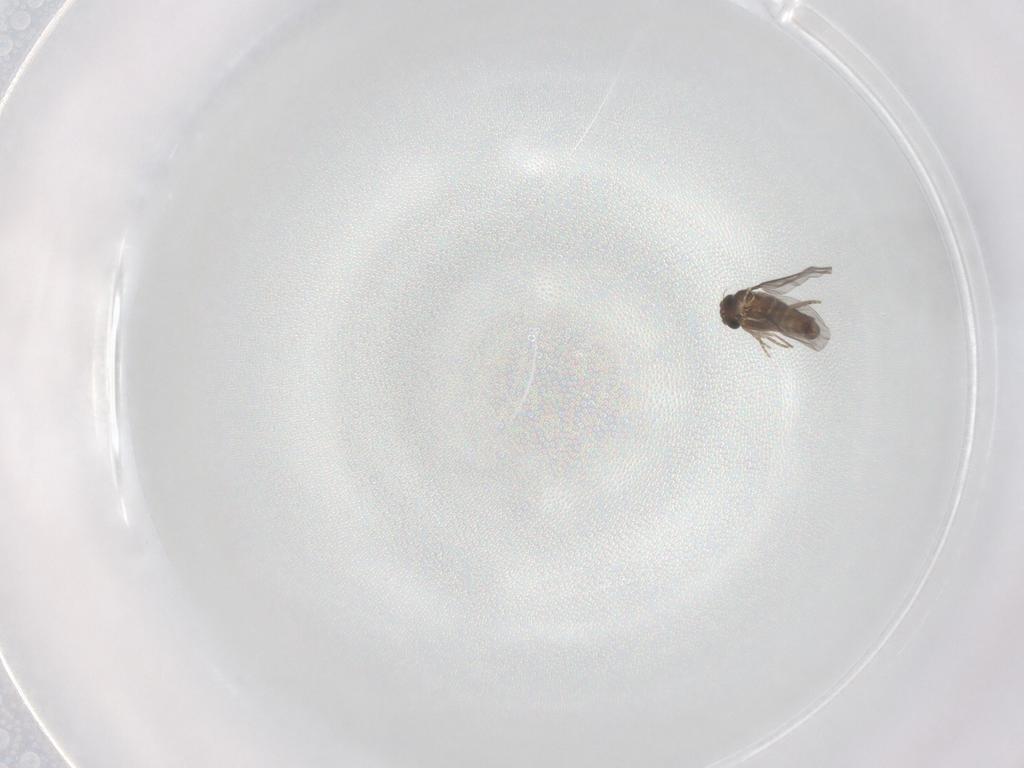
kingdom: Animalia
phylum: Arthropoda
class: Insecta
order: Diptera
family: Chironomidae
